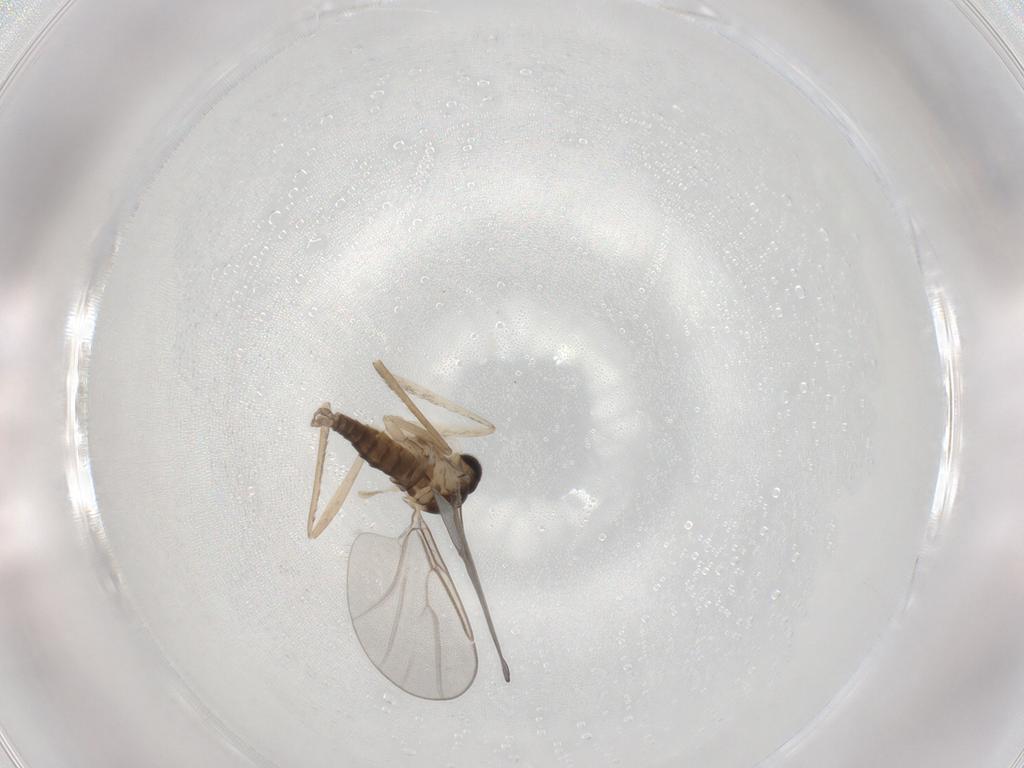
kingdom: Animalia
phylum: Arthropoda
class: Insecta
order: Diptera
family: Cecidomyiidae
